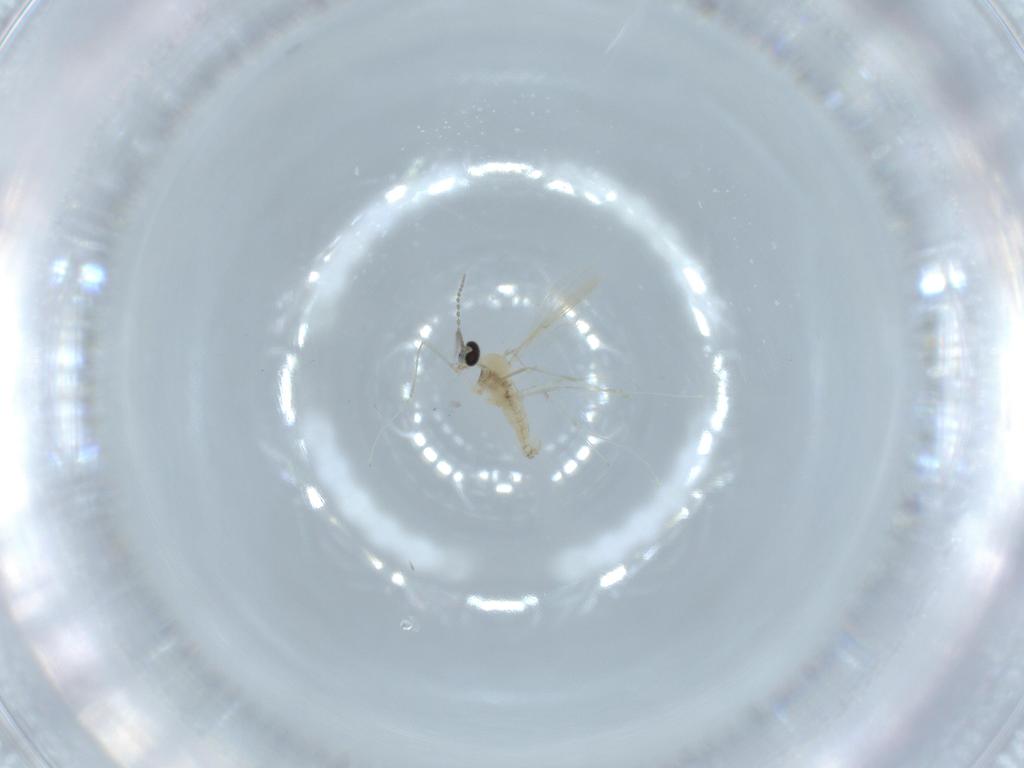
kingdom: Animalia
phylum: Arthropoda
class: Insecta
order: Diptera
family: Cecidomyiidae
